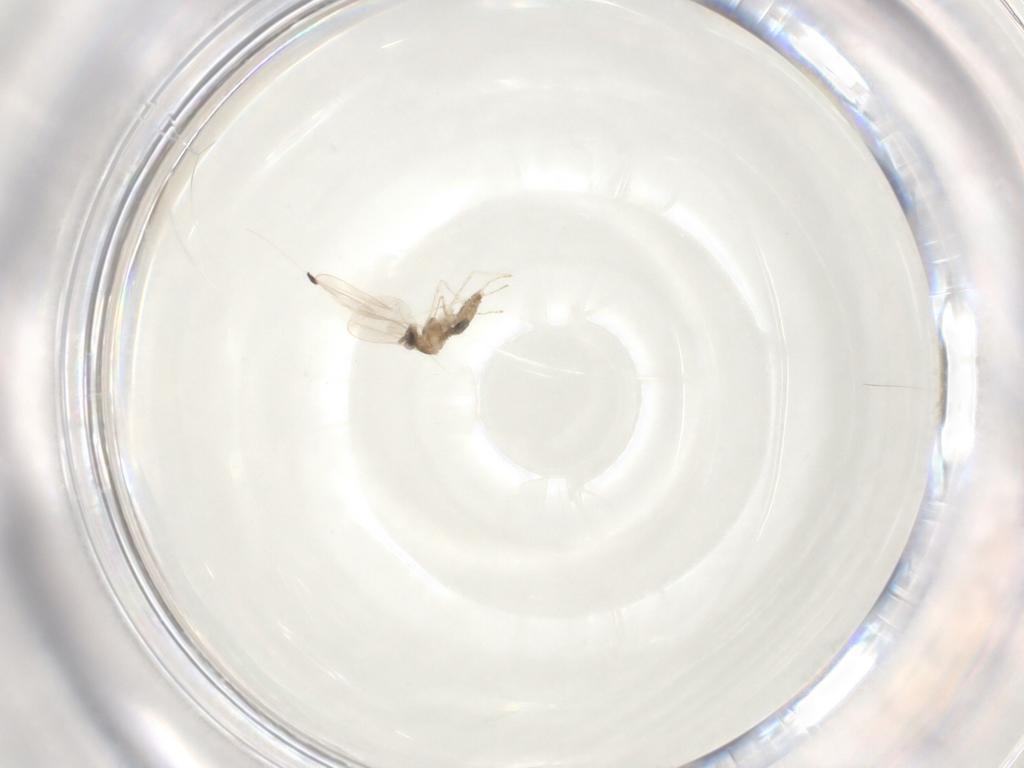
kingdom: Animalia
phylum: Arthropoda
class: Insecta
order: Diptera
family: Cecidomyiidae
